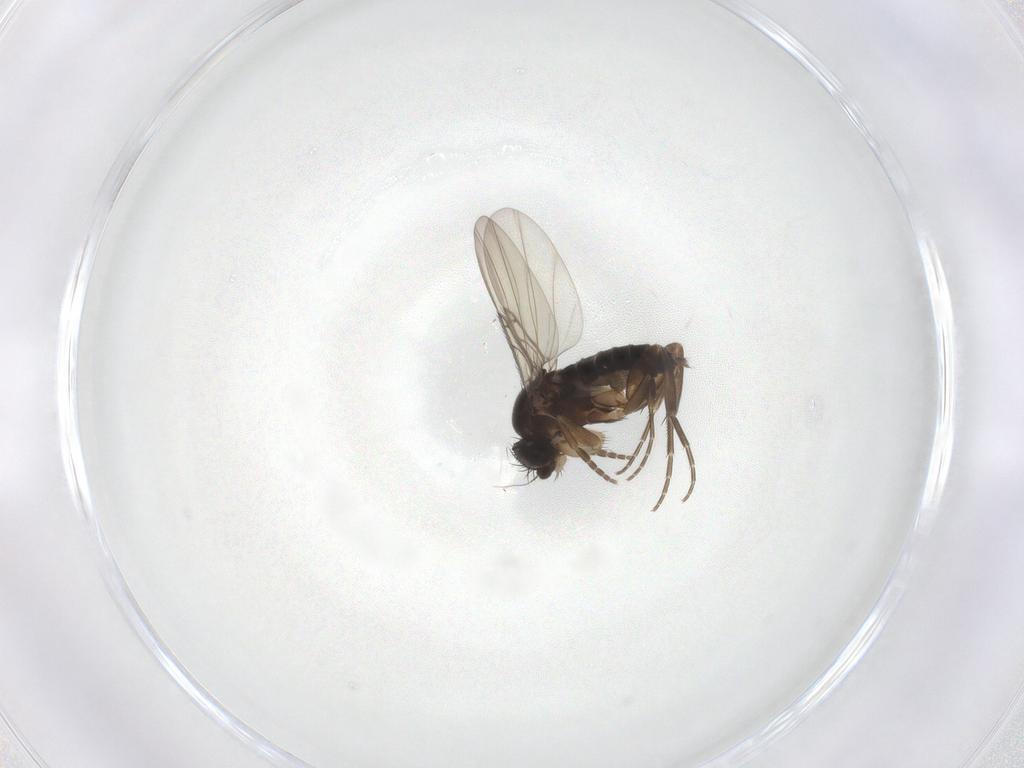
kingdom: Animalia
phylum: Arthropoda
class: Insecta
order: Diptera
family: Phoridae
